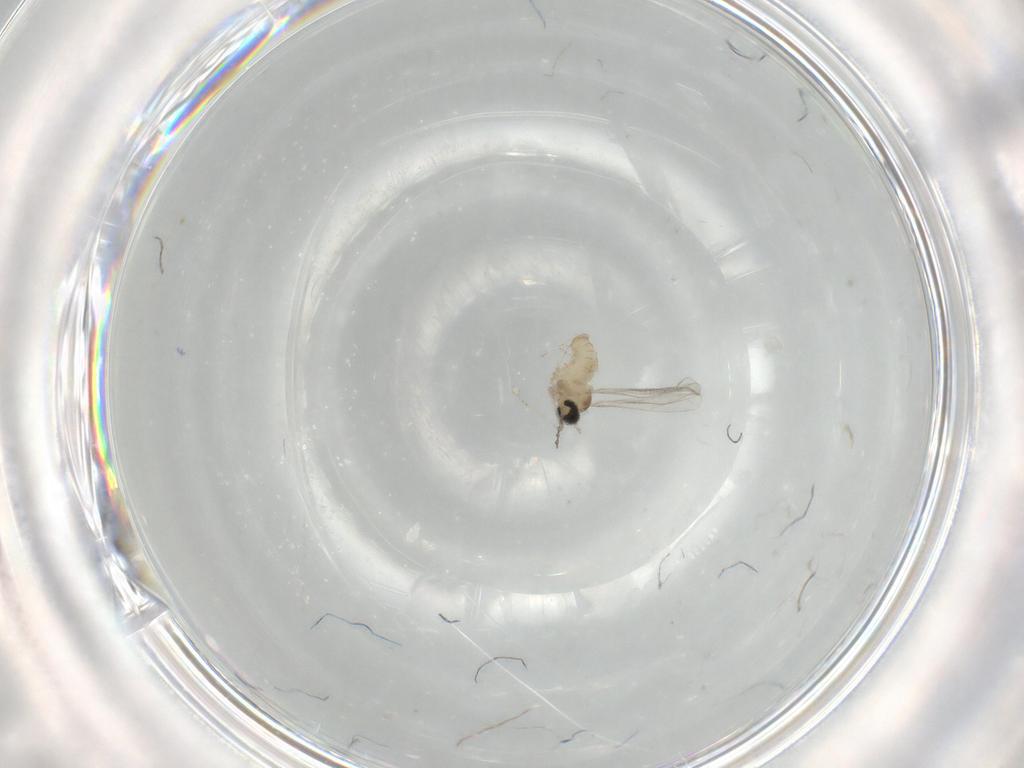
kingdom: Animalia
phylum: Arthropoda
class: Insecta
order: Diptera
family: Cecidomyiidae
